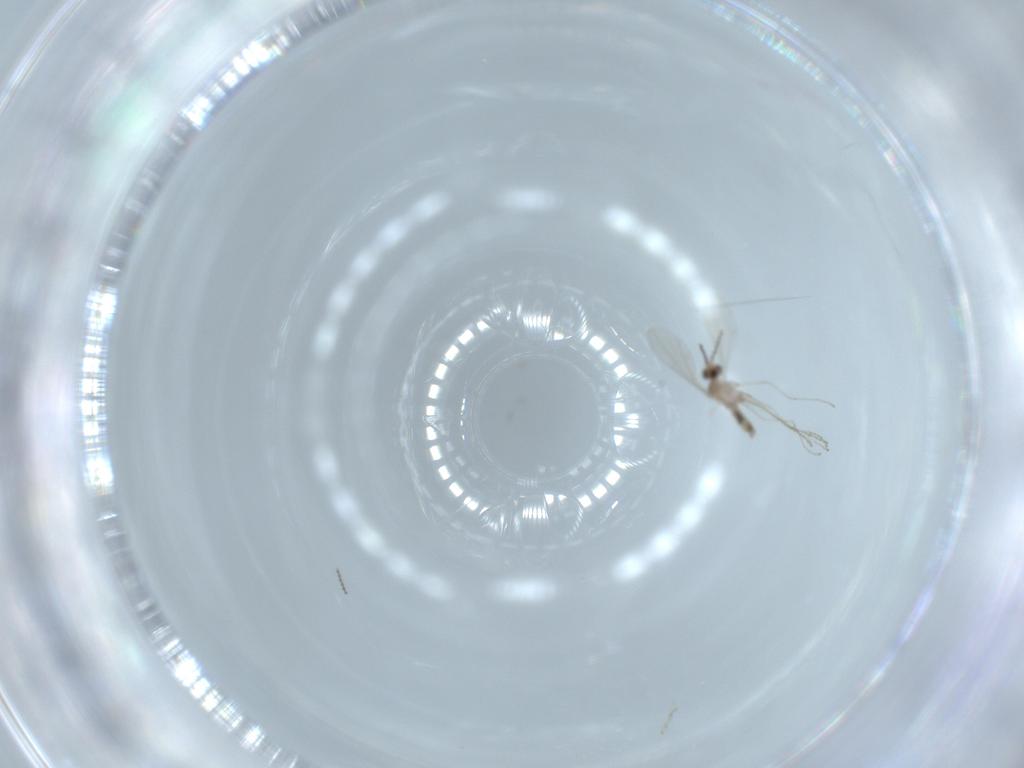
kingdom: Animalia
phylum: Arthropoda
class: Insecta
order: Diptera
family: Cecidomyiidae
